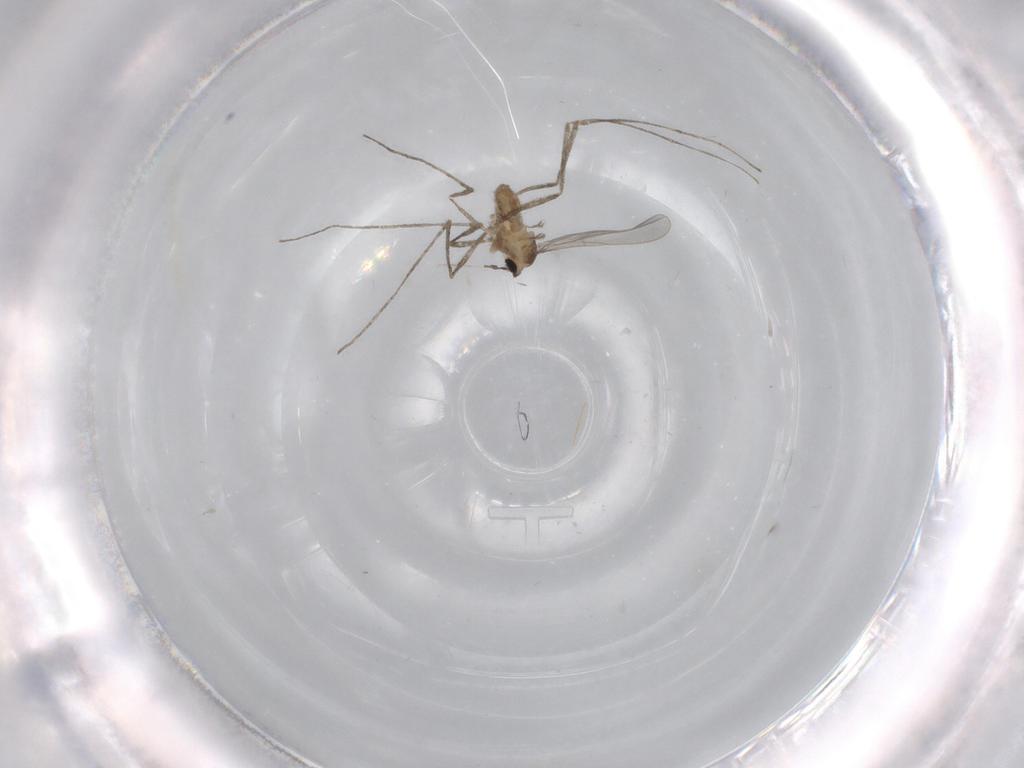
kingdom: Animalia
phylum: Arthropoda
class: Insecta
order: Diptera
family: Cecidomyiidae
